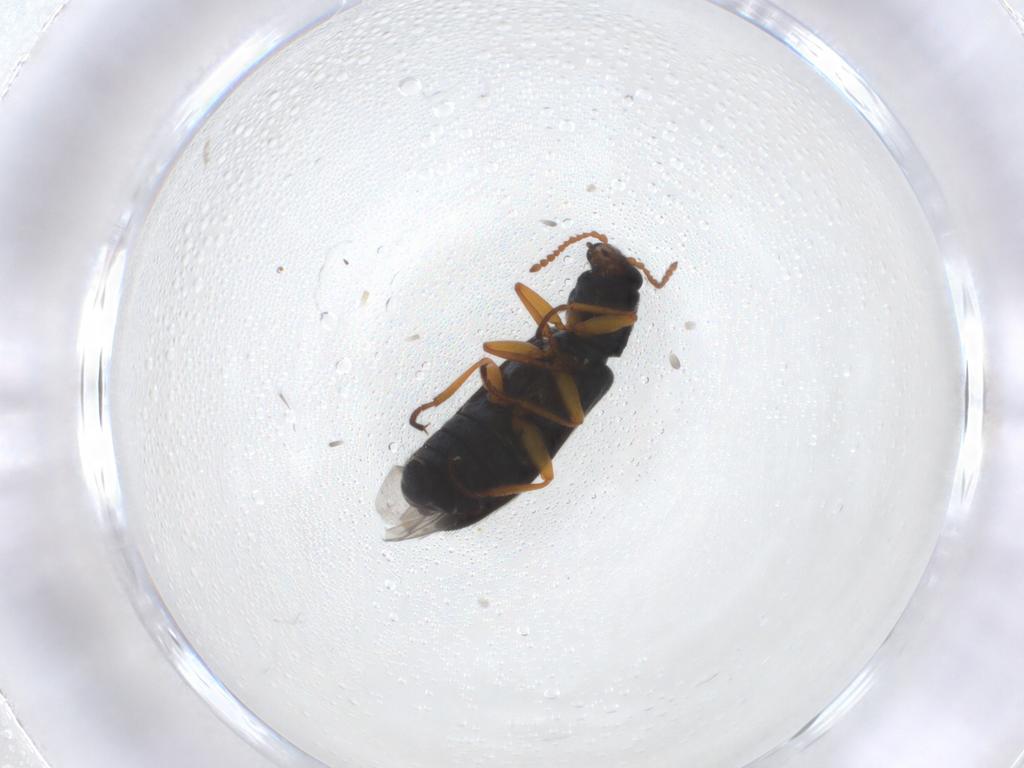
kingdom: Animalia
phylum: Arthropoda
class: Insecta
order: Coleoptera
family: Melyridae
